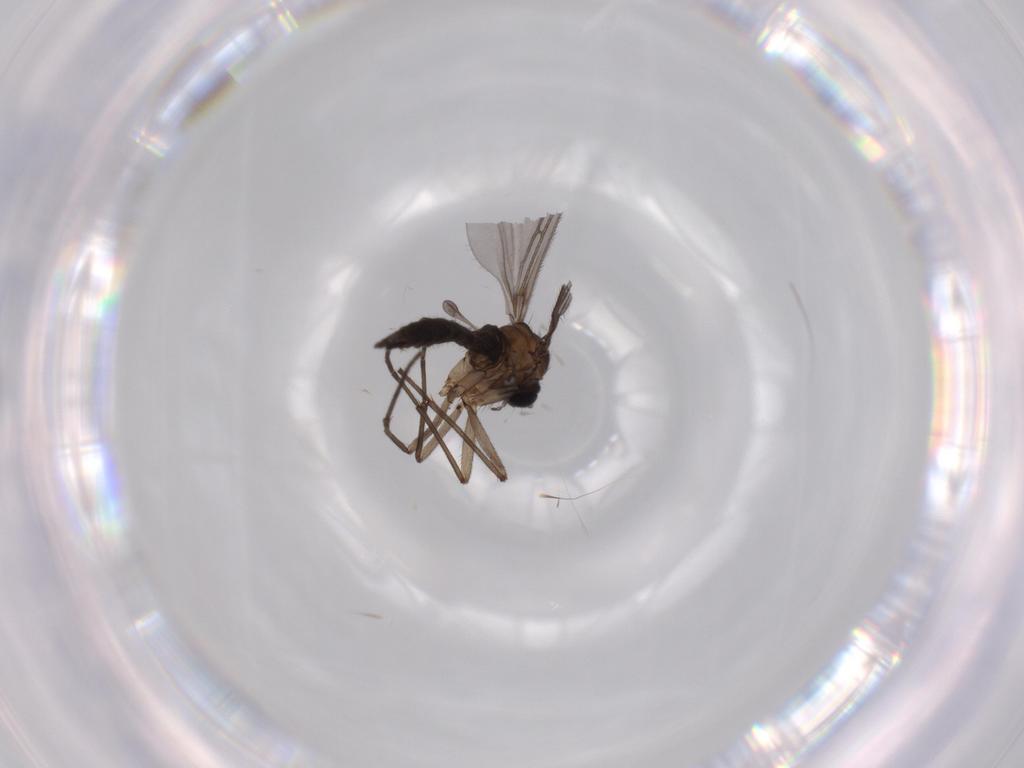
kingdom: Animalia
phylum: Arthropoda
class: Insecta
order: Diptera
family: Sciaridae
